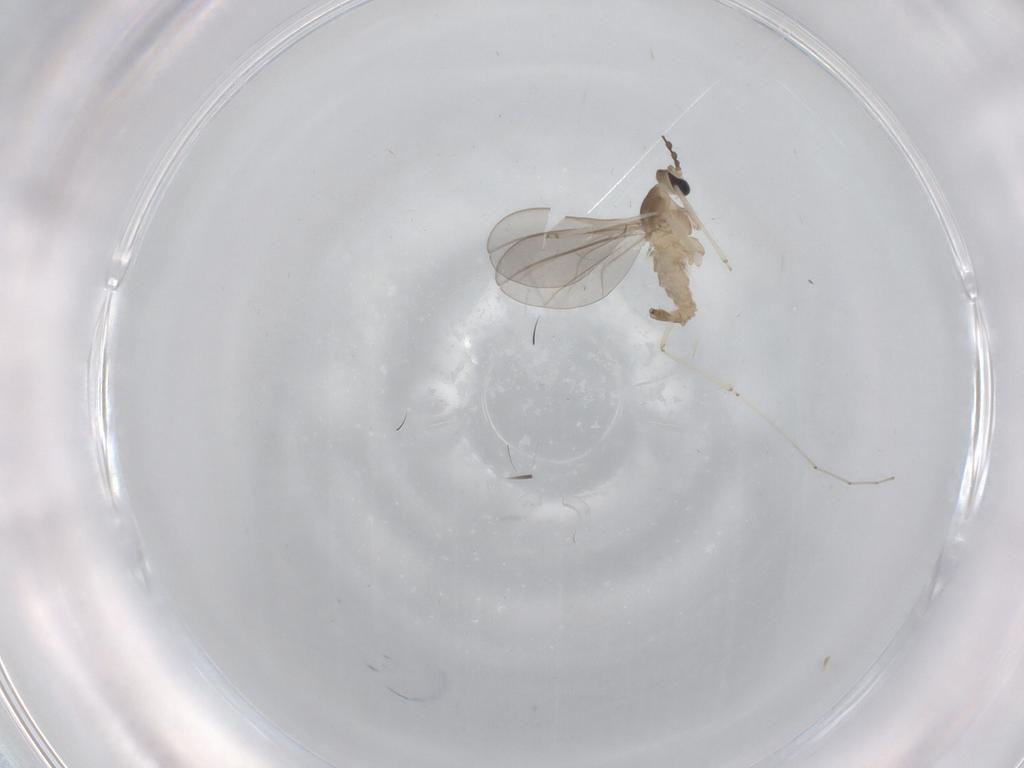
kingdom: Animalia
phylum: Arthropoda
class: Insecta
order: Diptera
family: Cecidomyiidae
